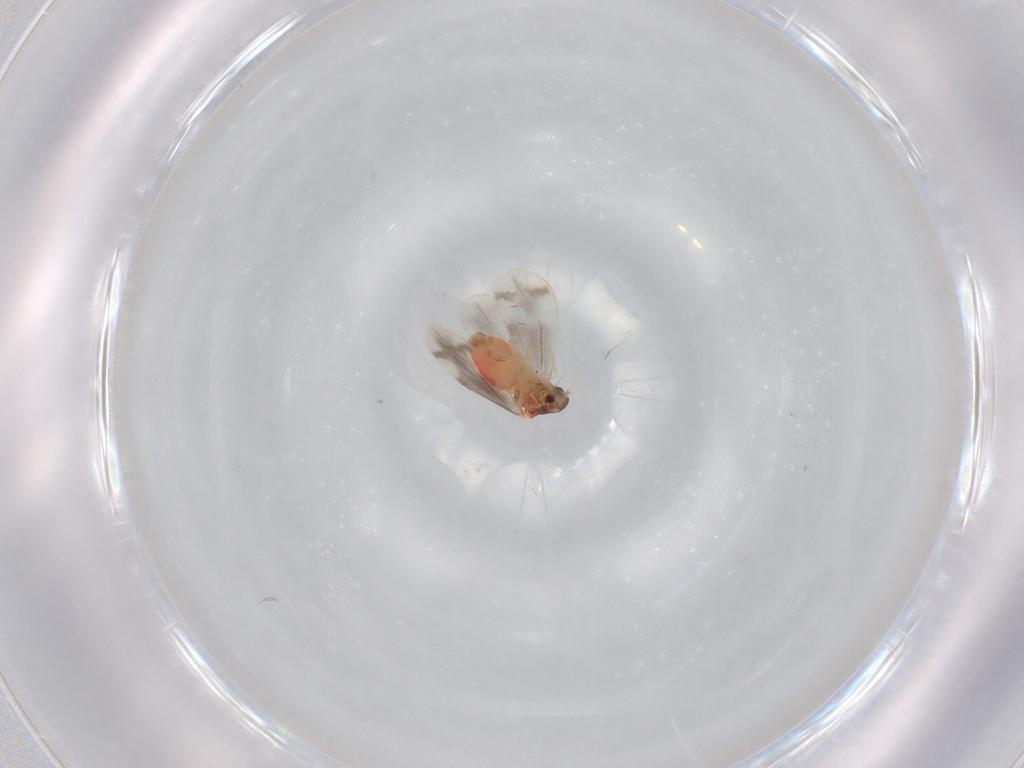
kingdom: Animalia
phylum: Arthropoda
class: Insecta
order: Hemiptera
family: Aleyrodidae
